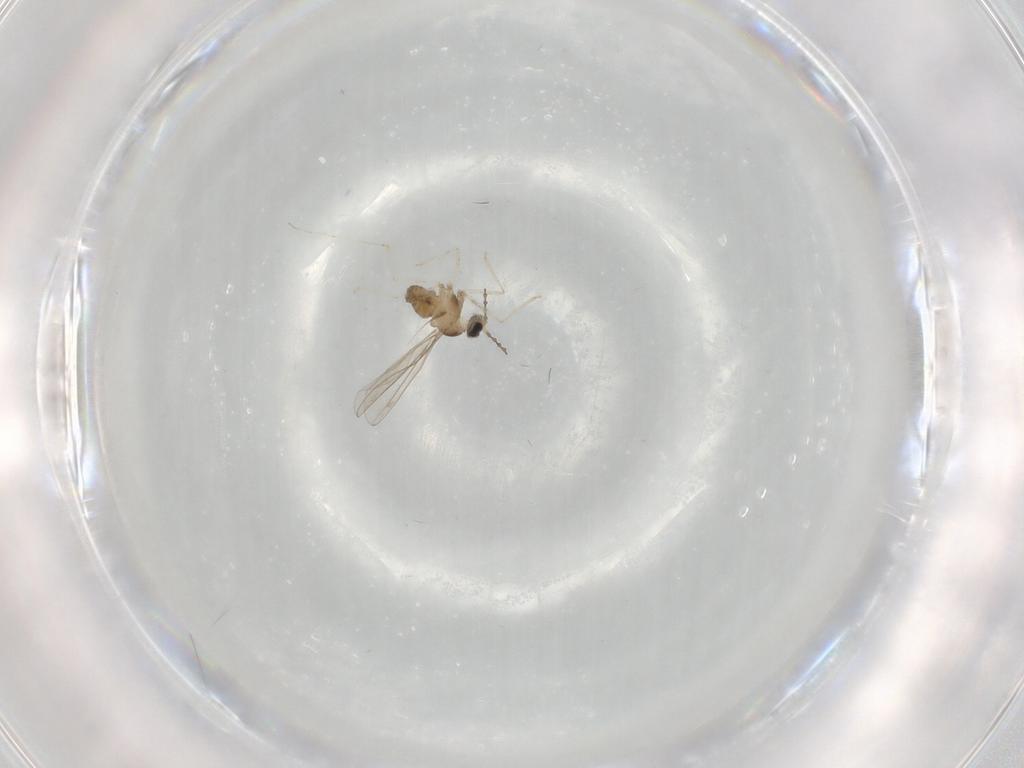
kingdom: Animalia
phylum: Arthropoda
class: Insecta
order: Diptera
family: Cecidomyiidae
